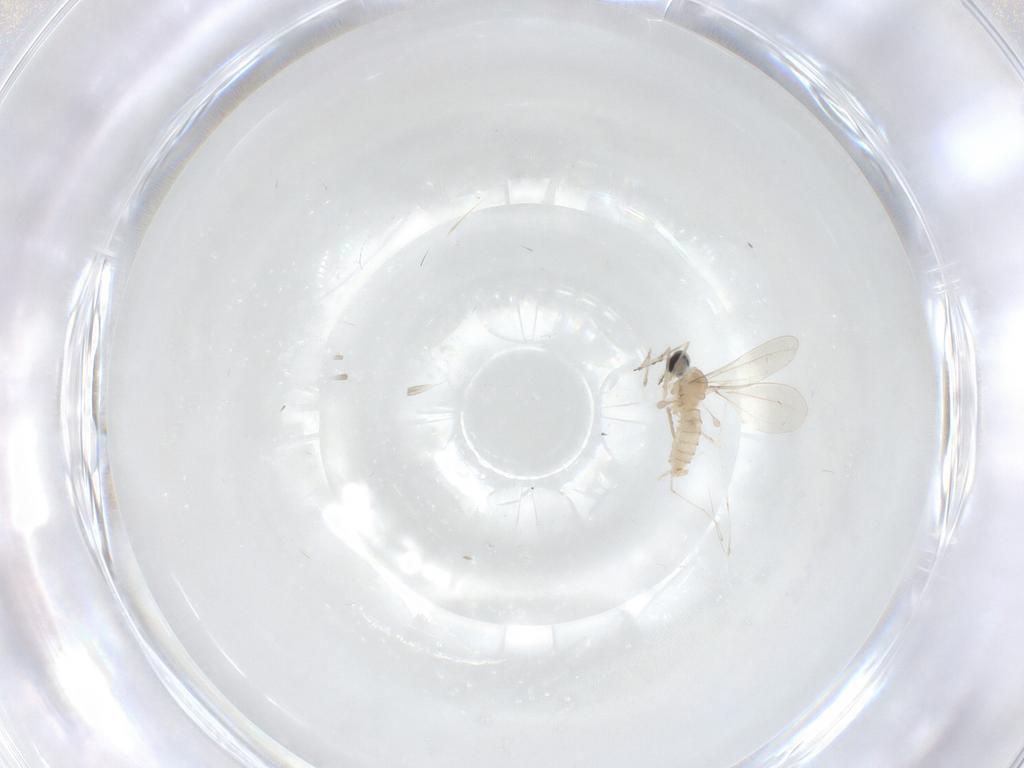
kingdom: Animalia
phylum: Arthropoda
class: Insecta
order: Diptera
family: Cecidomyiidae
